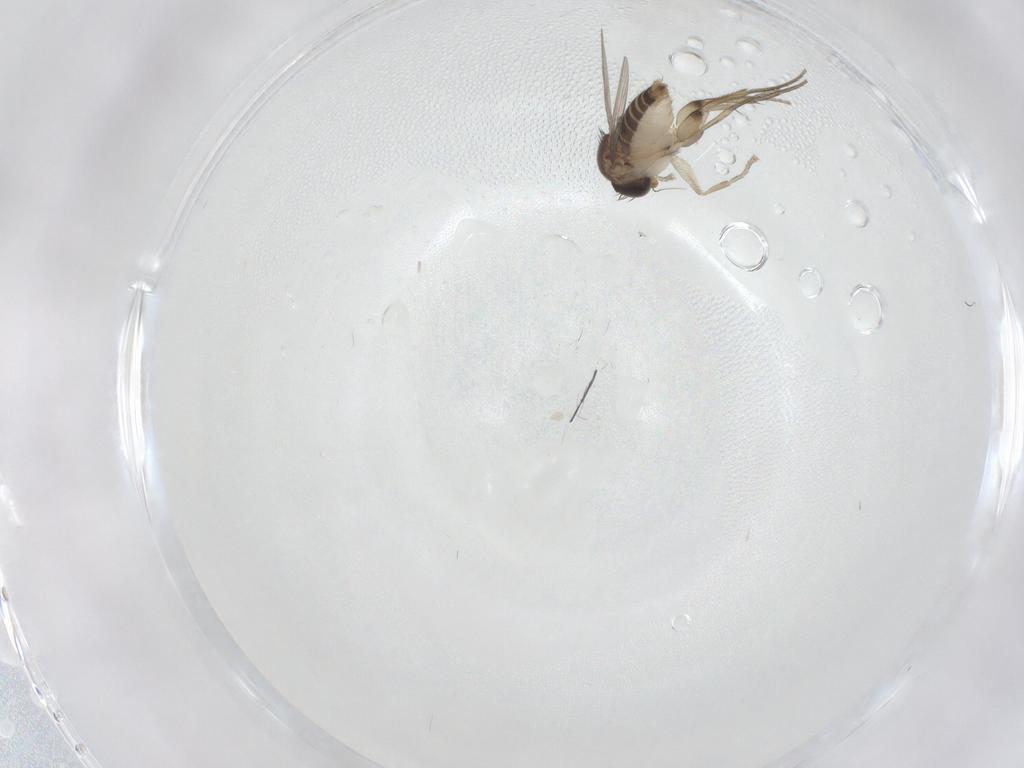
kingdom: Animalia
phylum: Arthropoda
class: Insecta
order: Diptera
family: Phoridae
